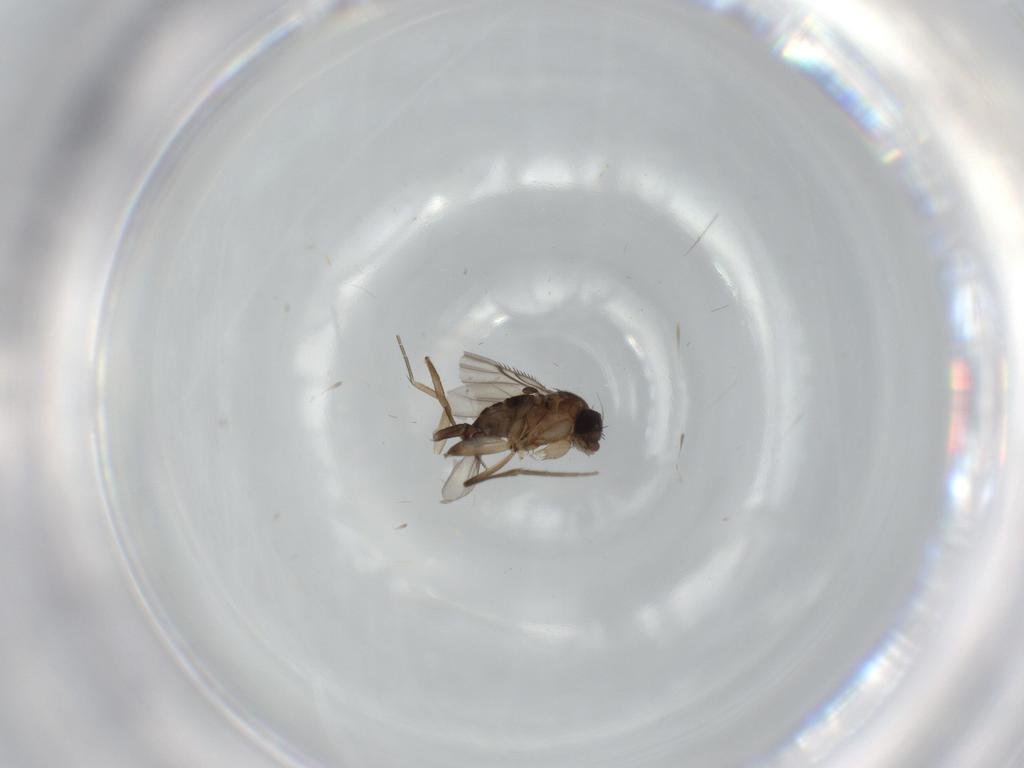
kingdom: Animalia
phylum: Arthropoda
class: Insecta
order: Diptera
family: Phoridae
